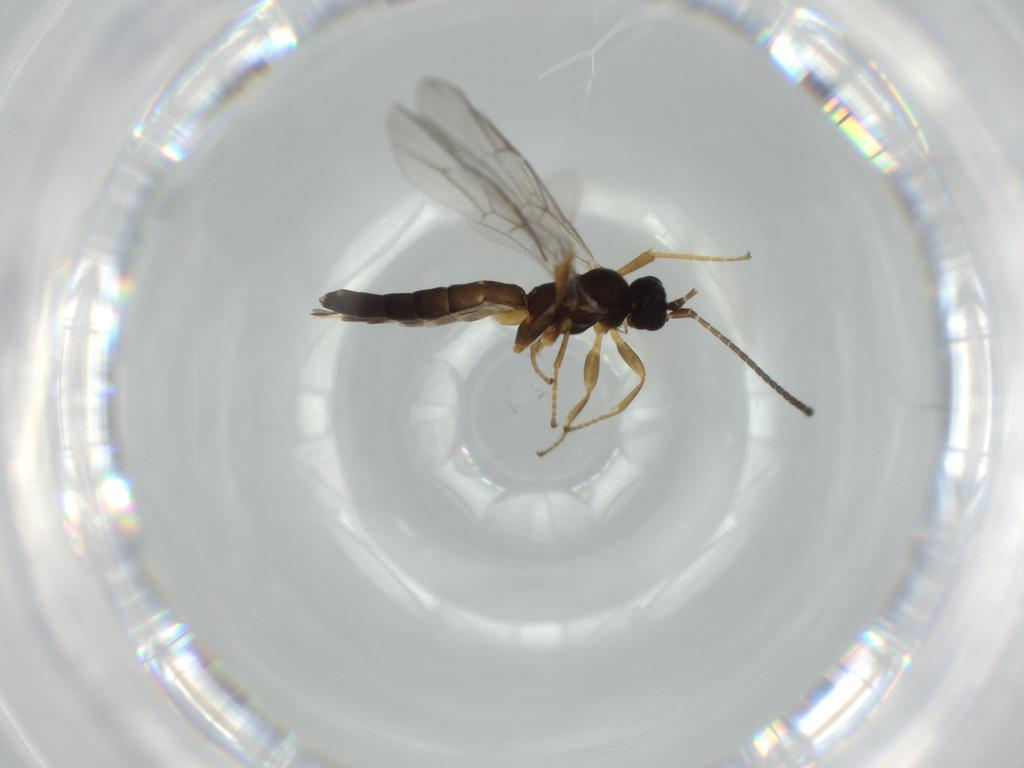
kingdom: Animalia
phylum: Arthropoda
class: Insecta
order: Hymenoptera
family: Ichneumonidae
